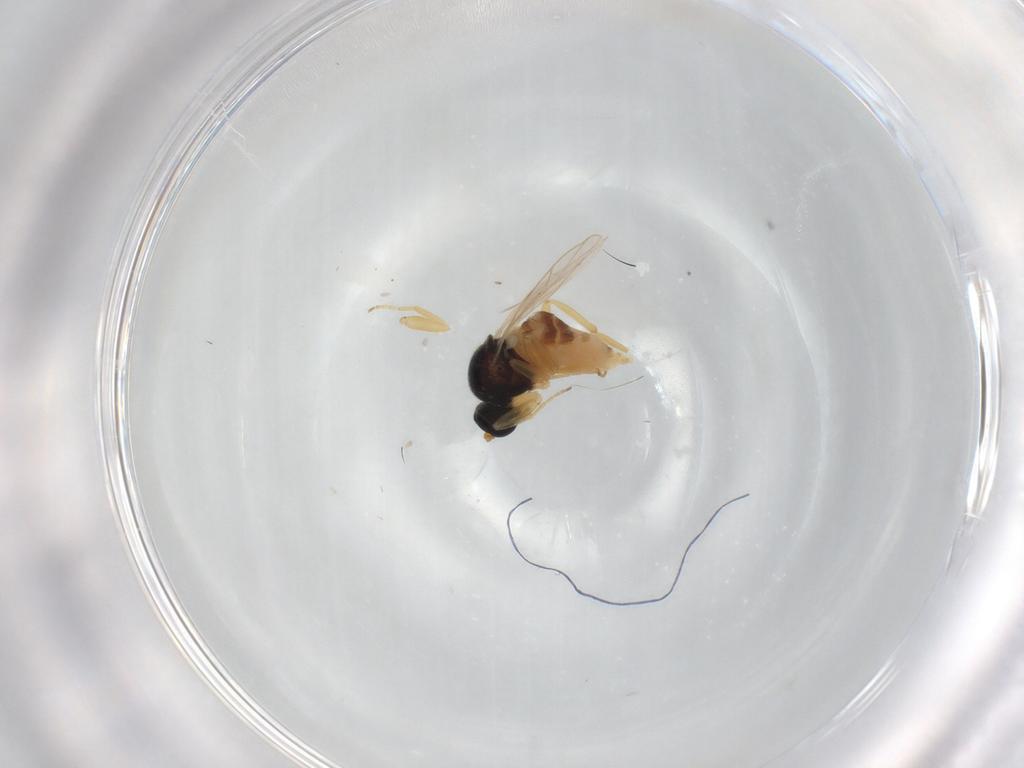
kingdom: Animalia
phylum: Arthropoda
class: Insecta
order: Diptera
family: Hybotidae
